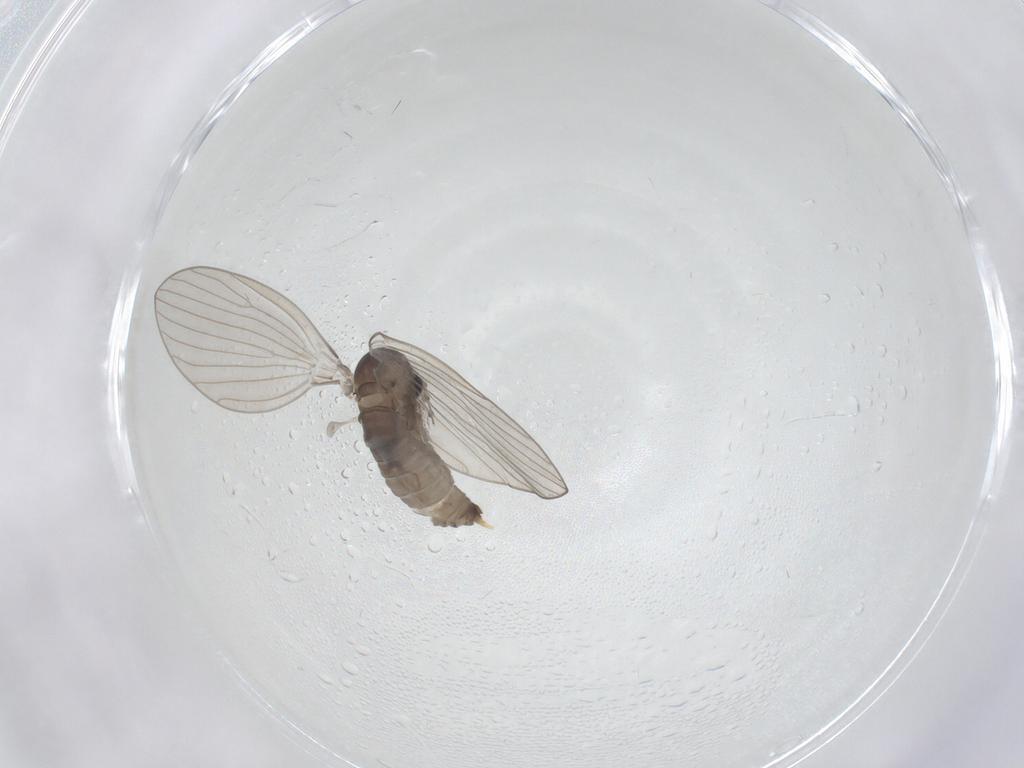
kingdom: Animalia
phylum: Arthropoda
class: Insecta
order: Diptera
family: Psychodidae
